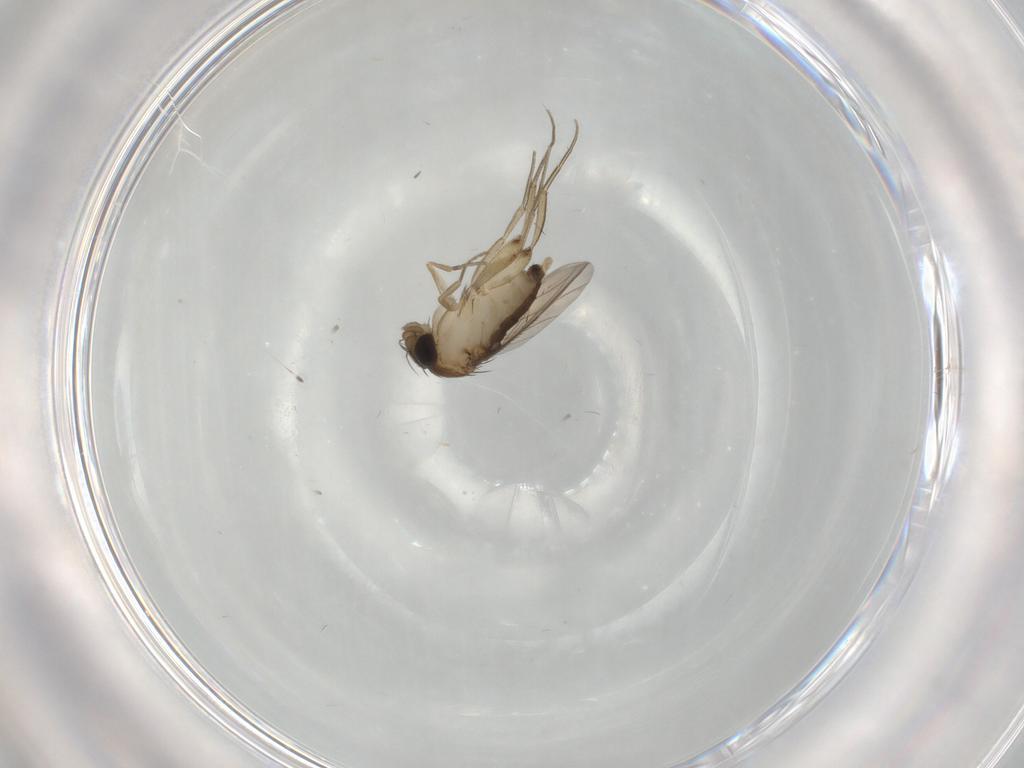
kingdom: Animalia
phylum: Arthropoda
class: Insecta
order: Diptera
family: Phoridae
